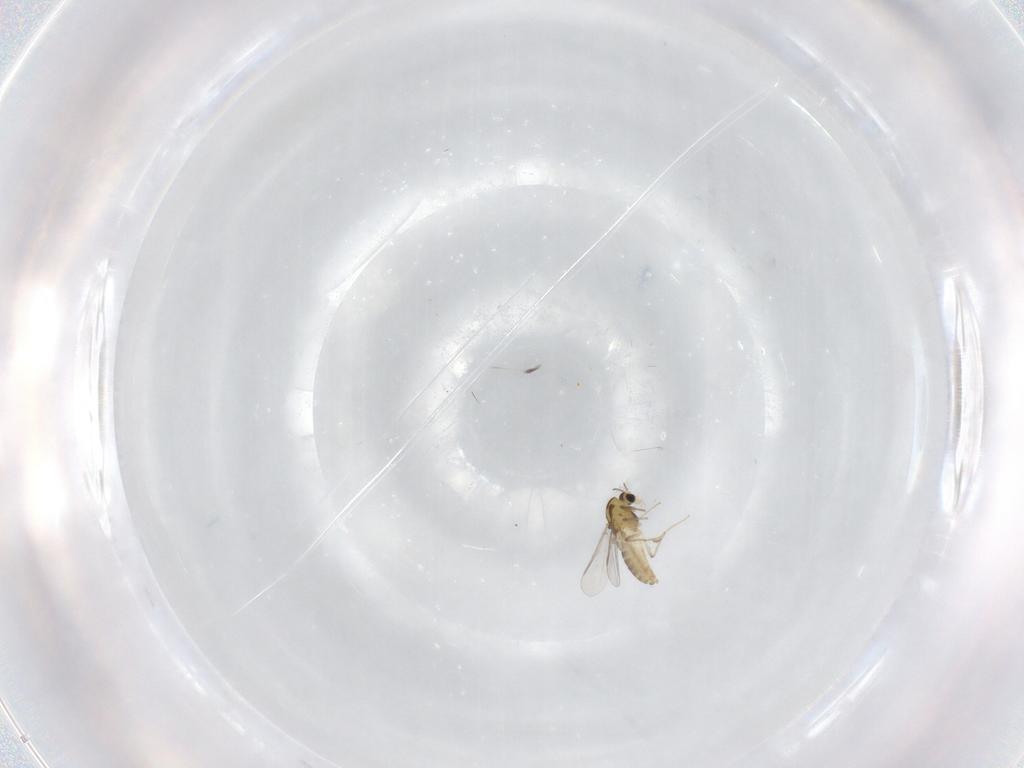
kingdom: Animalia
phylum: Arthropoda
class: Insecta
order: Diptera
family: Chironomidae
